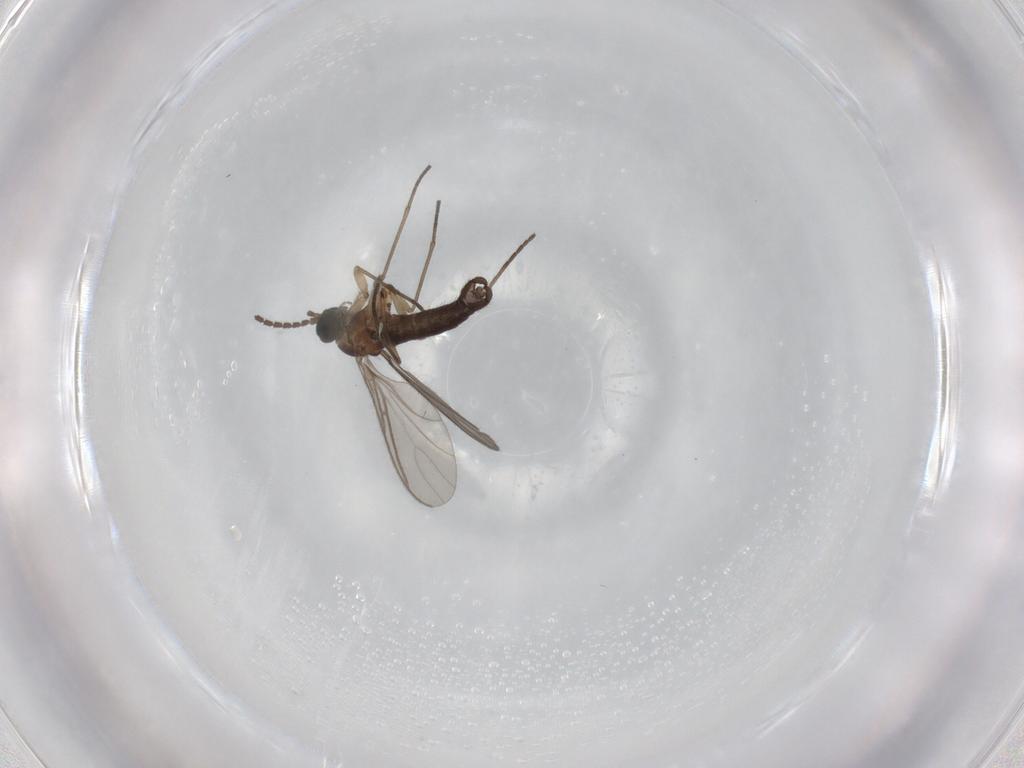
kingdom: Animalia
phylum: Arthropoda
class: Insecta
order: Diptera
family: Sciaridae
